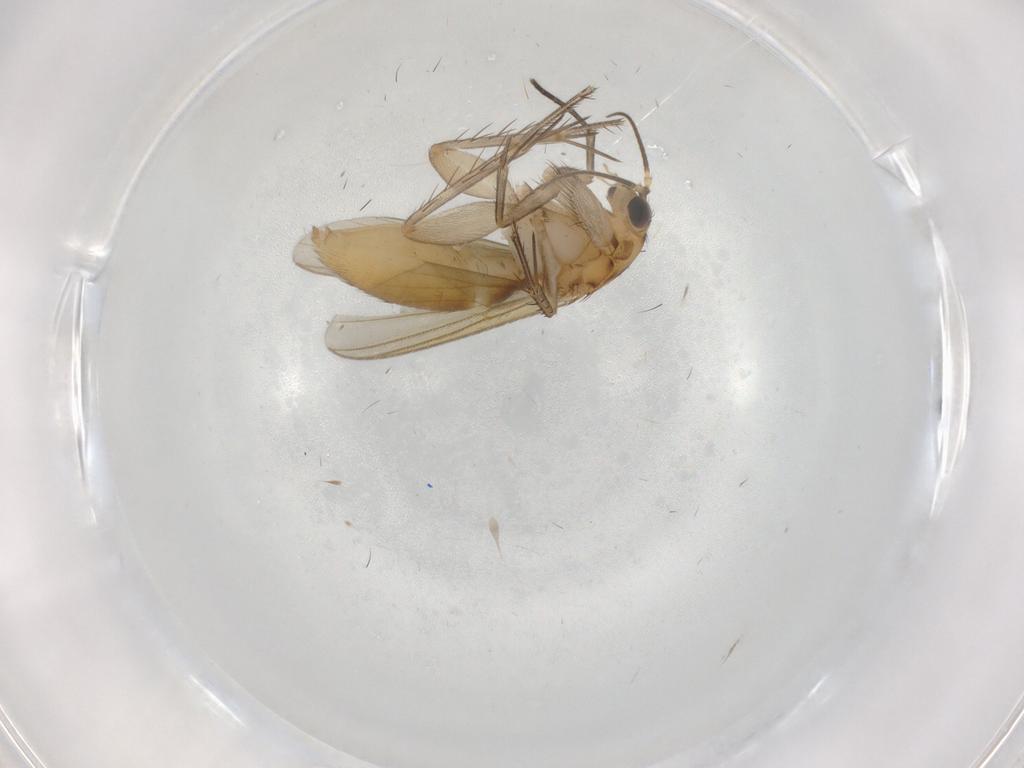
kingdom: Animalia
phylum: Arthropoda
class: Insecta
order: Diptera
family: Mycetophilidae
